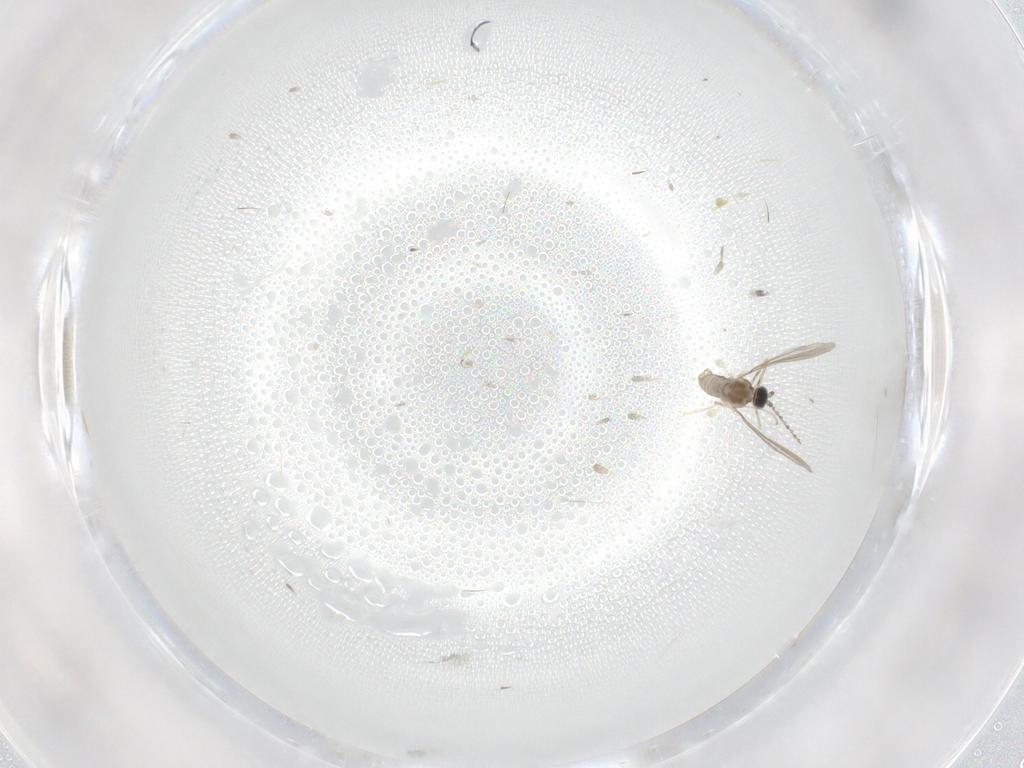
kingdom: Animalia
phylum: Arthropoda
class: Insecta
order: Diptera
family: Cecidomyiidae
